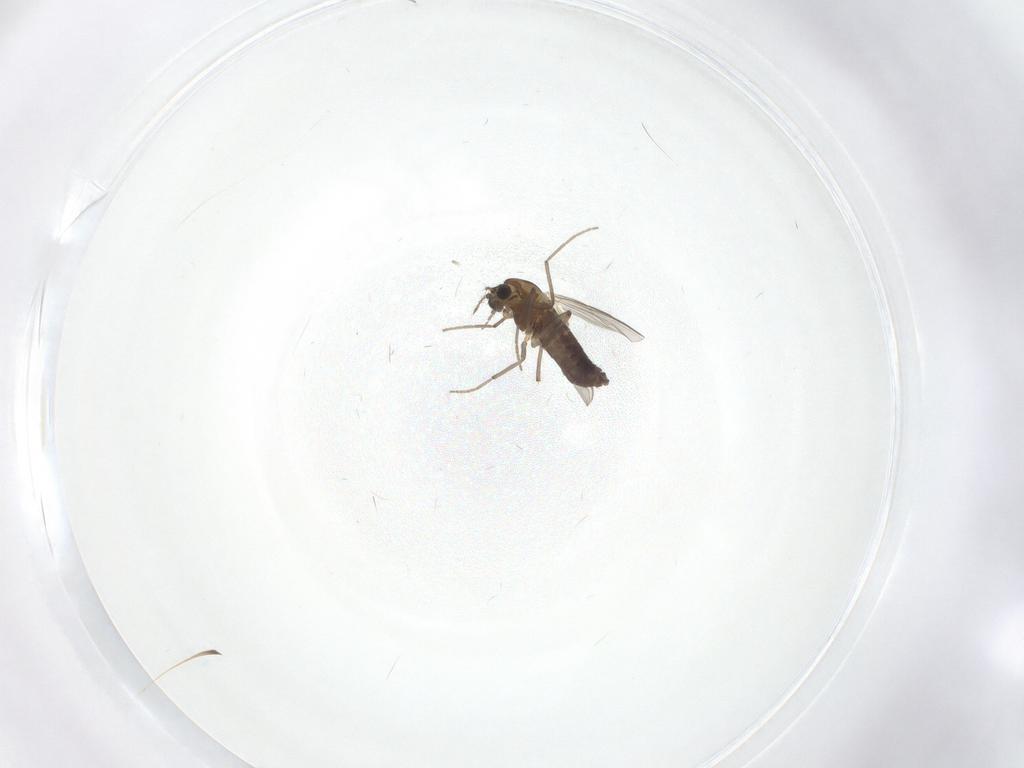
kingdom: Animalia
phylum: Arthropoda
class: Insecta
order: Diptera
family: Chironomidae
